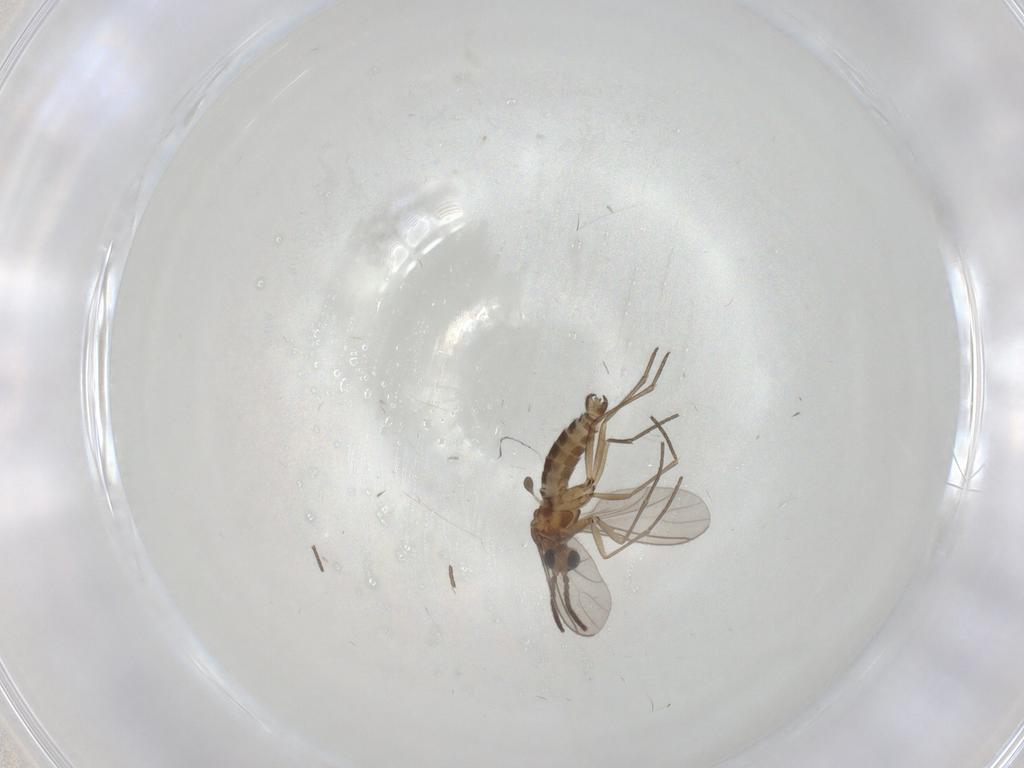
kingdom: Animalia
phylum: Arthropoda
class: Insecta
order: Diptera
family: Sciaridae
